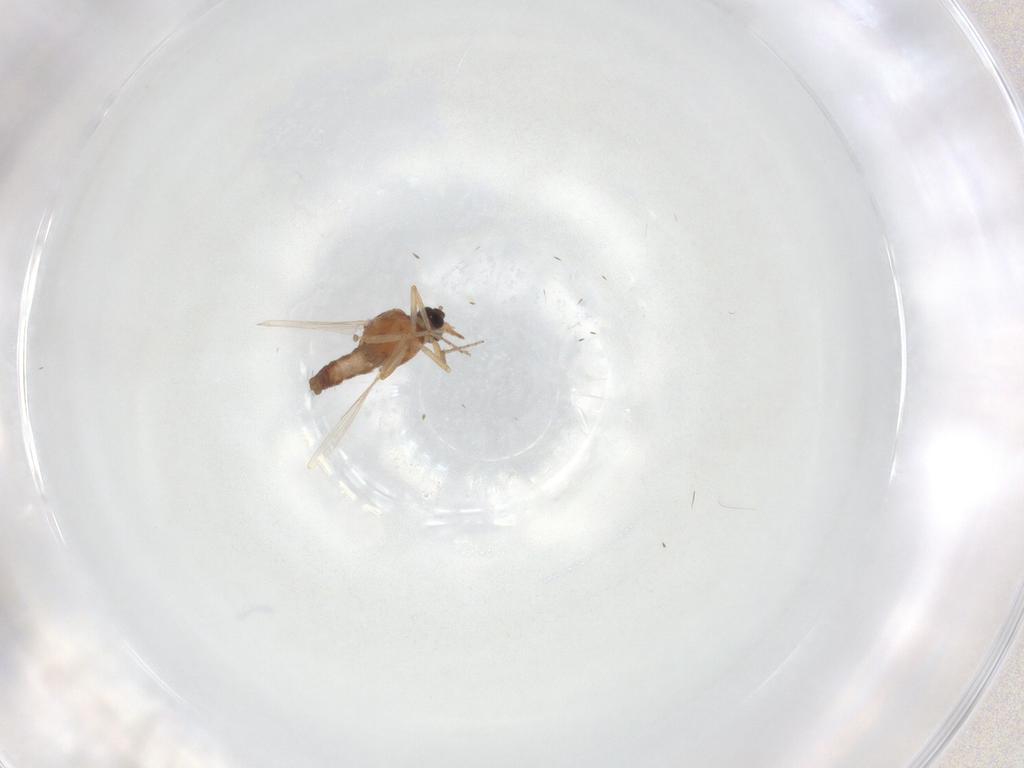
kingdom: Animalia
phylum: Arthropoda
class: Insecta
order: Diptera
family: Ceratopogonidae
